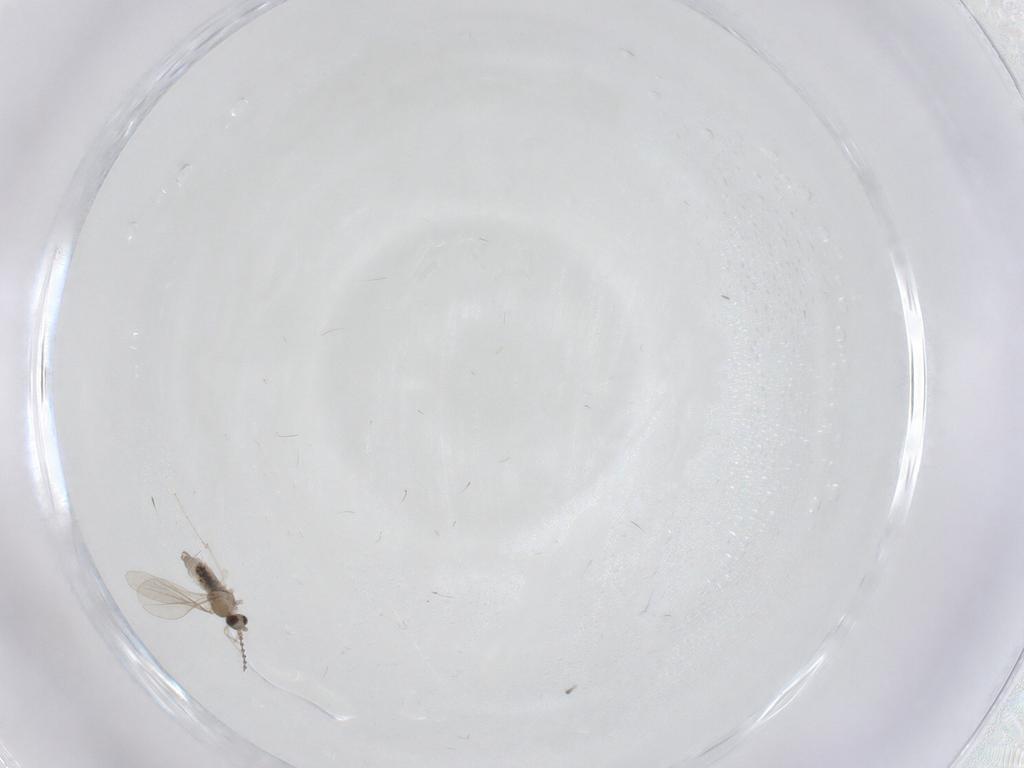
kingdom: Animalia
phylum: Arthropoda
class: Insecta
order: Diptera
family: Cecidomyiidae
